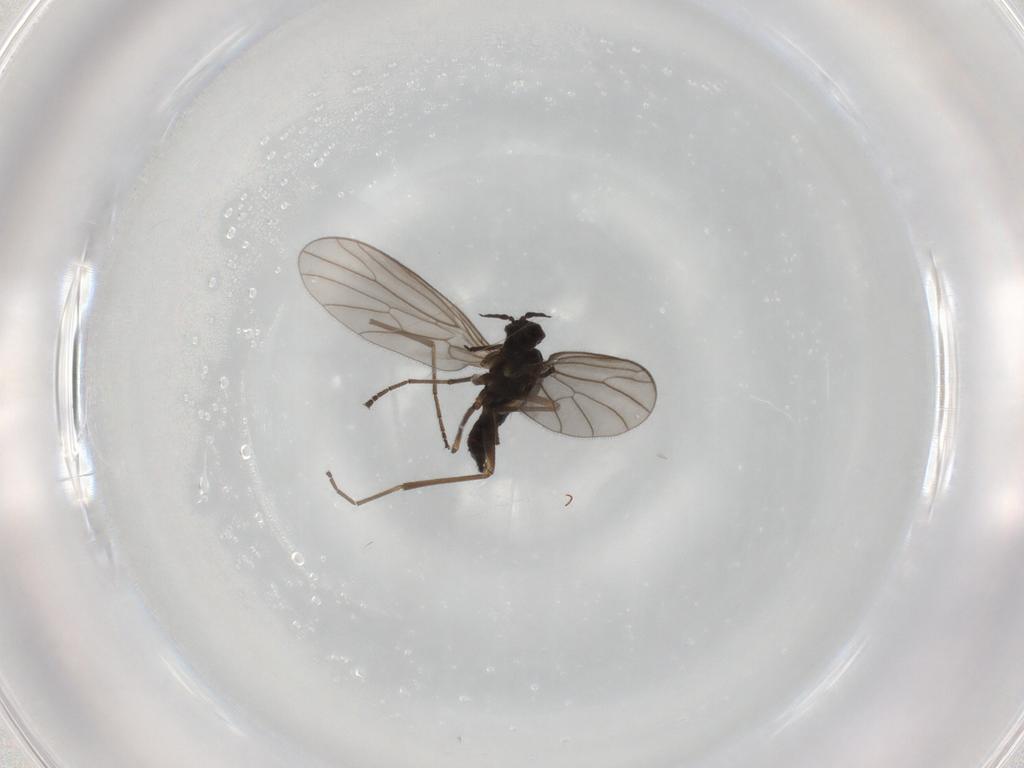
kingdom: Animalia
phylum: Arthropoda
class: Insecta
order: Diptera
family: Empididae
